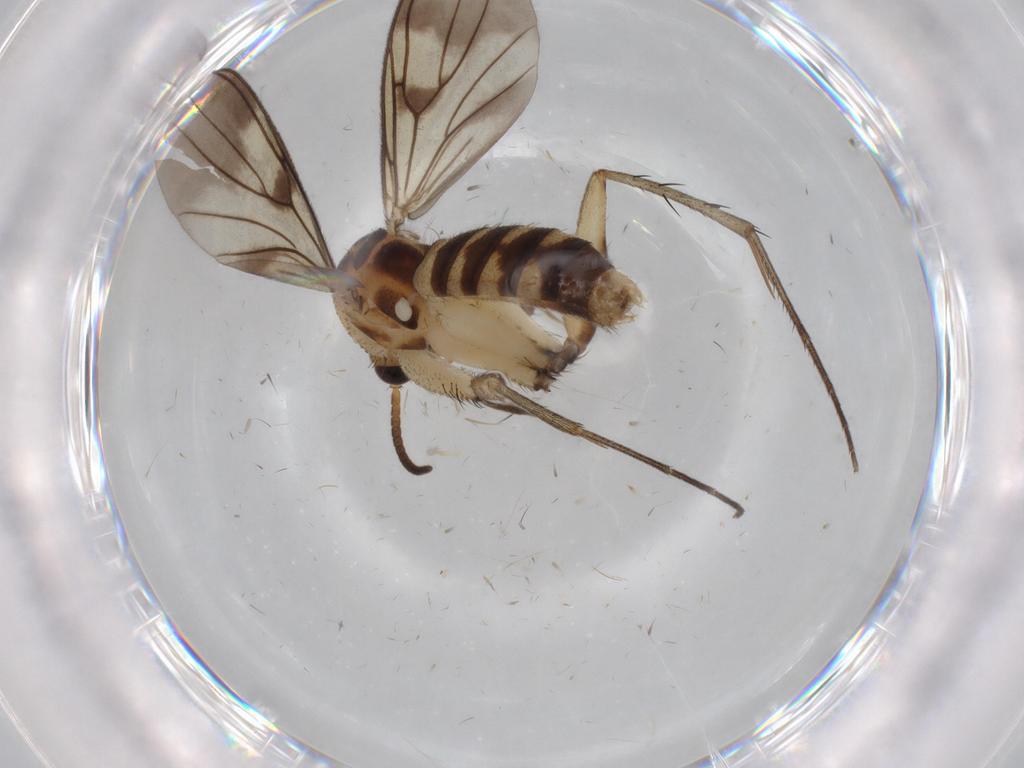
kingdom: Animalia
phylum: Arthropoda
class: Insecta
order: Diptera
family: Phoridae
